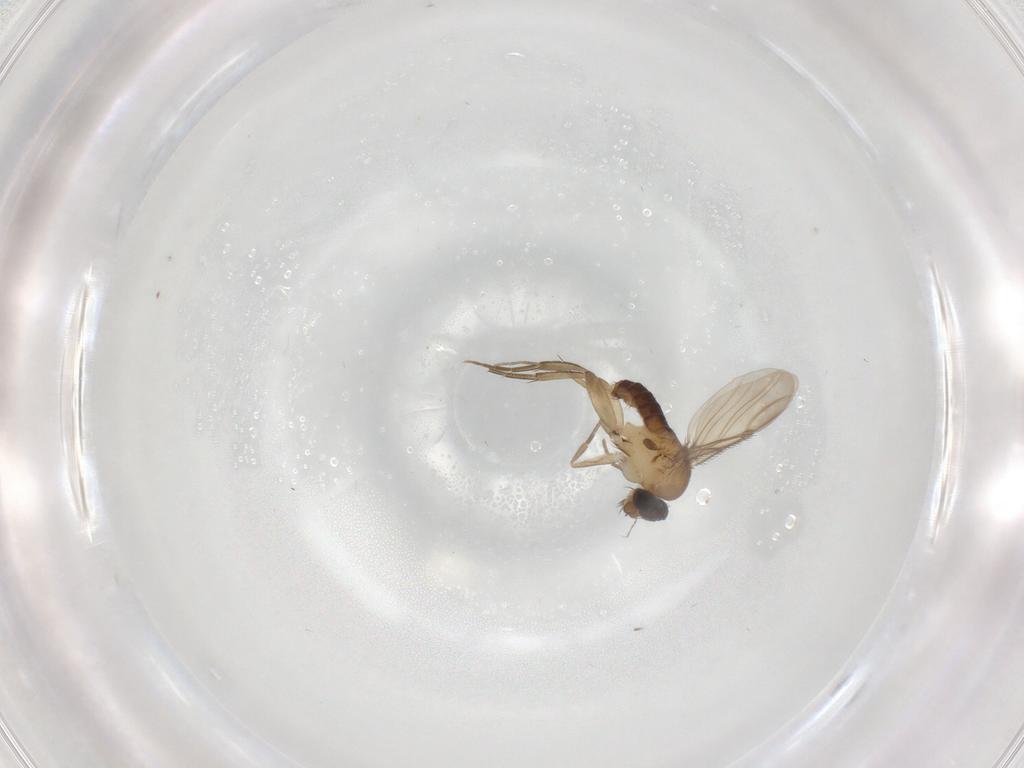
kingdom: Animalia
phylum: Arthropoda
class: Insecta
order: Diptera
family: Phoridae
